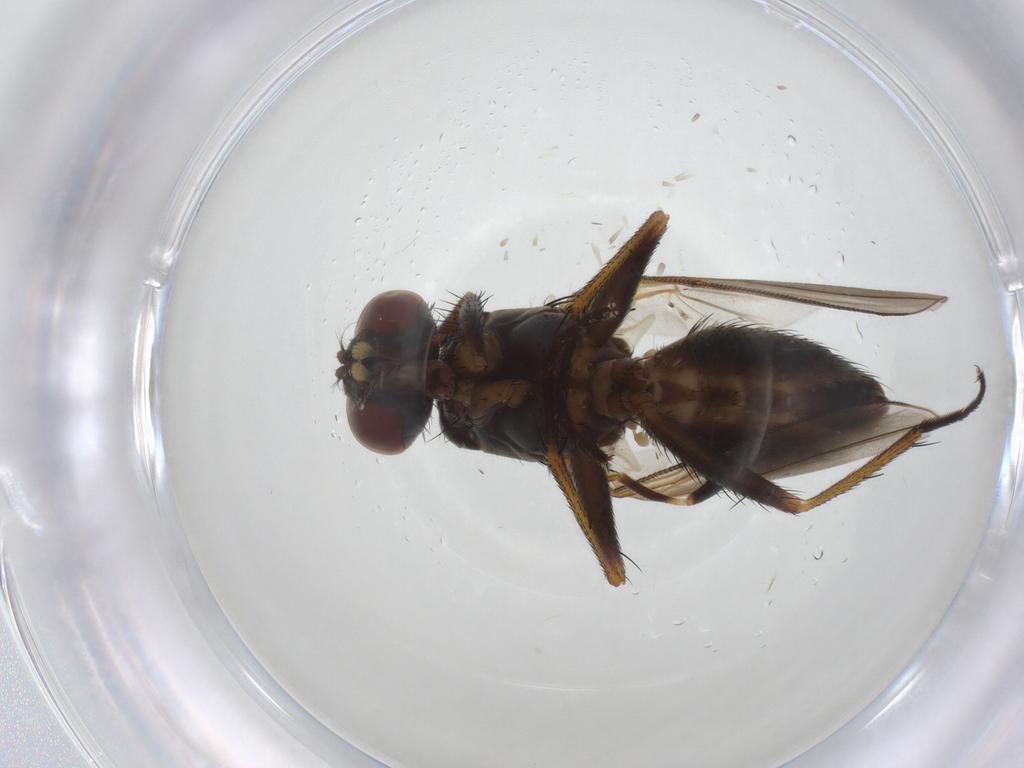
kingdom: Animalia
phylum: Arthropoda
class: Insecta
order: Diptera
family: Muscidae
